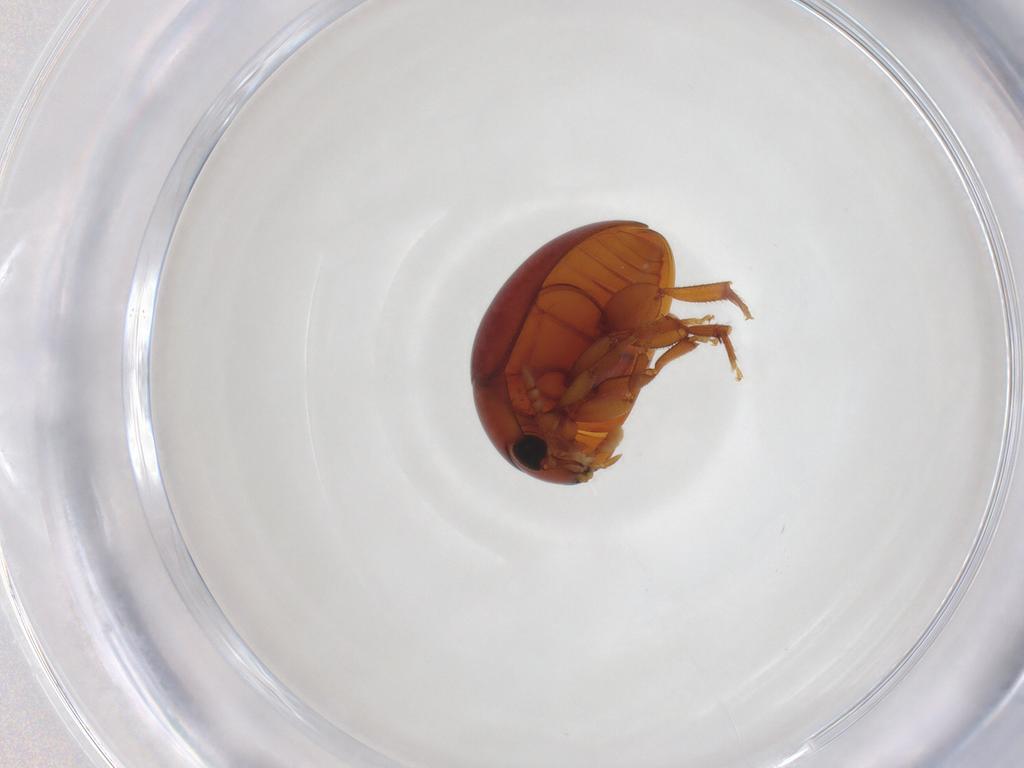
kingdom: Animalia
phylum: Arthropoda
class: Insecta
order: Coleoptera
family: Phalacridae
